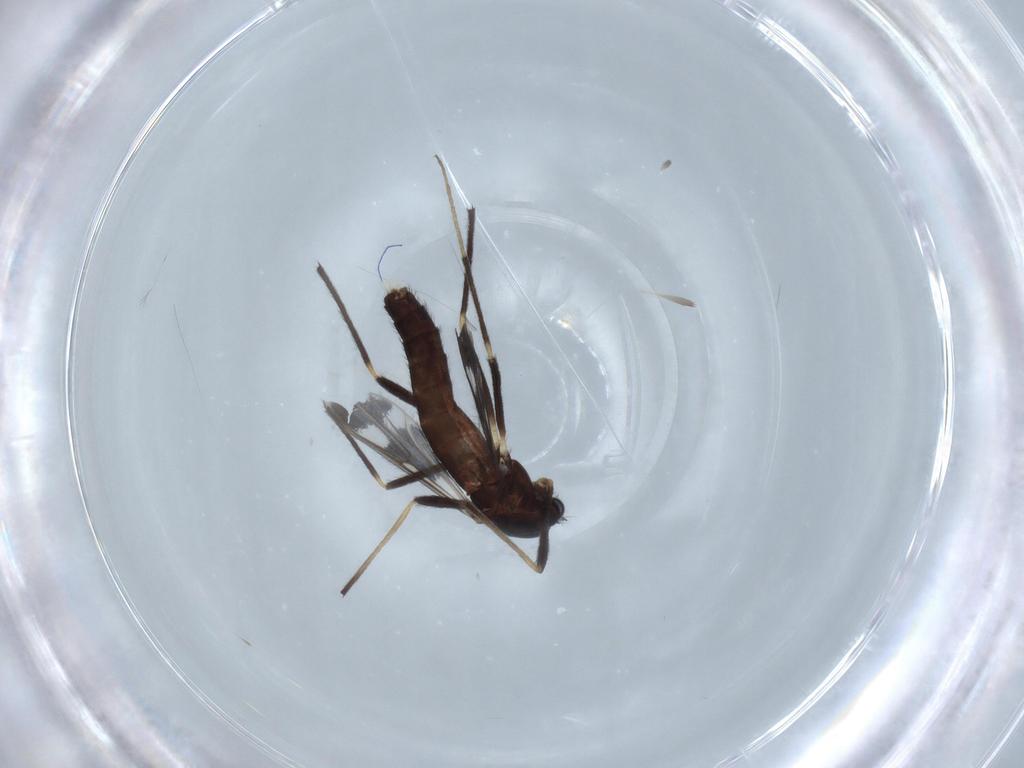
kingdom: Animalia
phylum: Arthropoda
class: Insecta
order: Diptera
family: Chironomidae
